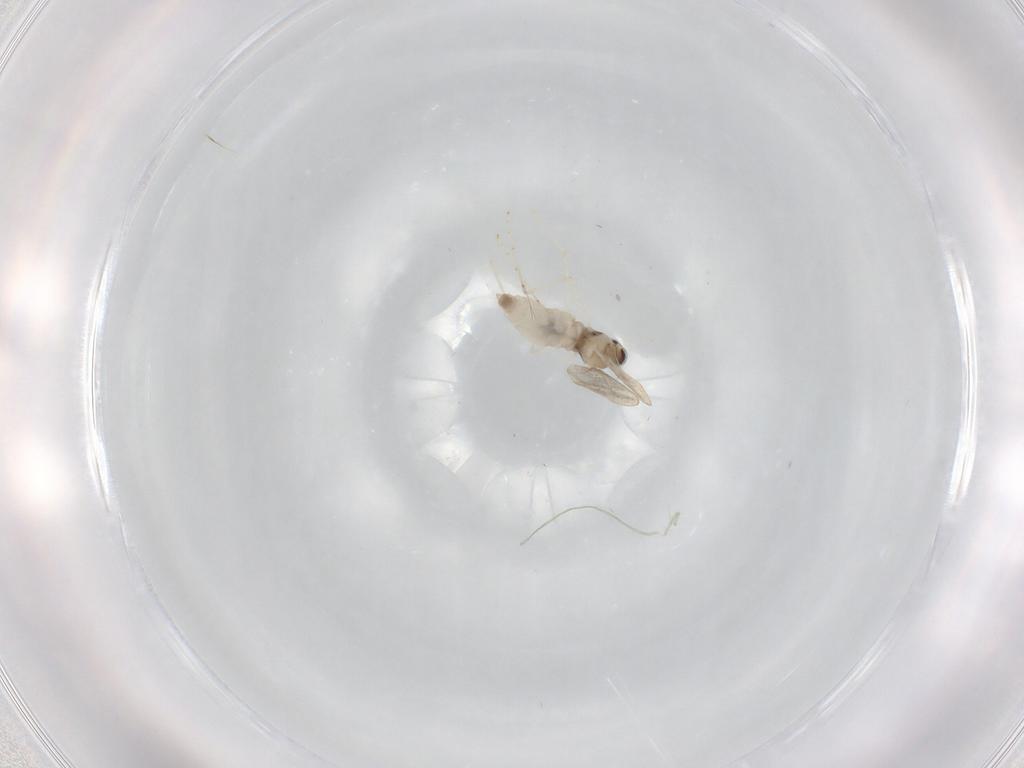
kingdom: Animalia
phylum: Arthropoda
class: Insecta
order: Diptera
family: Cecidomyiidae
